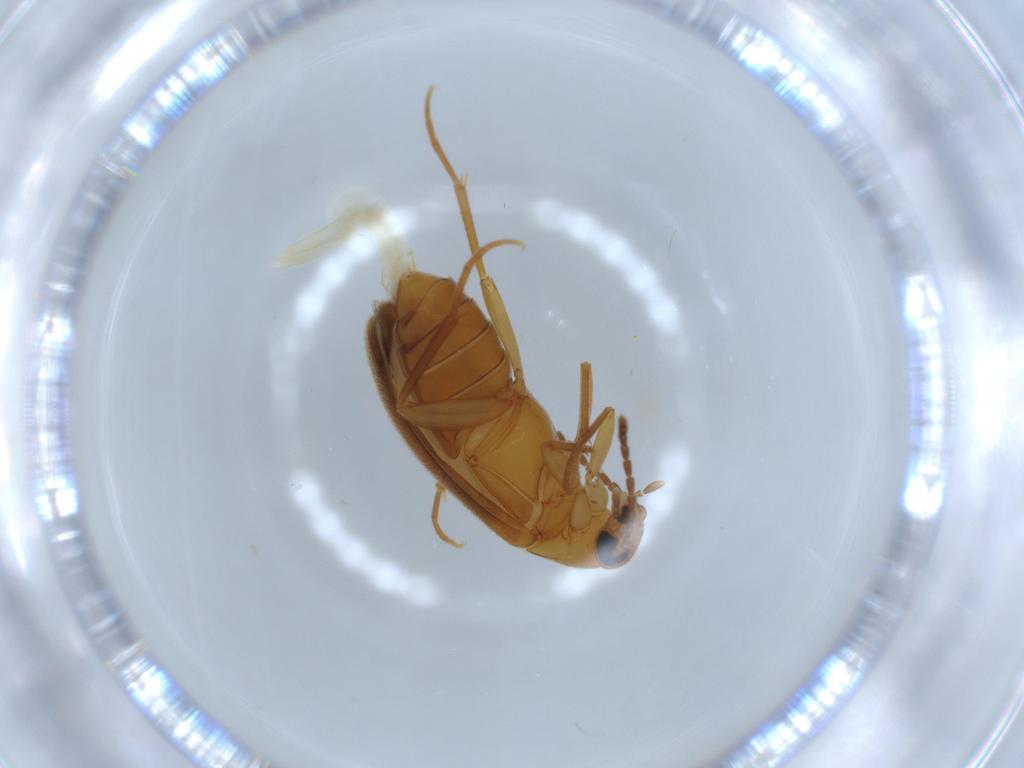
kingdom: Animalia
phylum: Arthropoda
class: Insecta
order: Coleoptera
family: Scraptiidae
